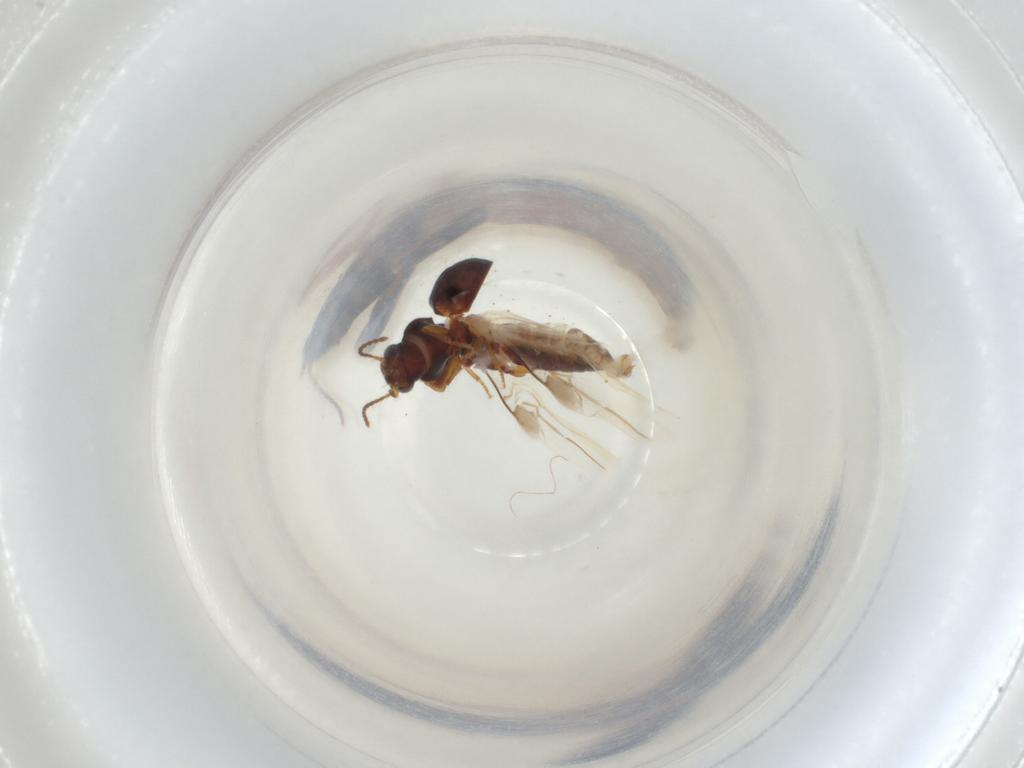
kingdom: Animalia
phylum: Arthropoda
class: Insecta
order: Coleoptera
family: Carabidae
